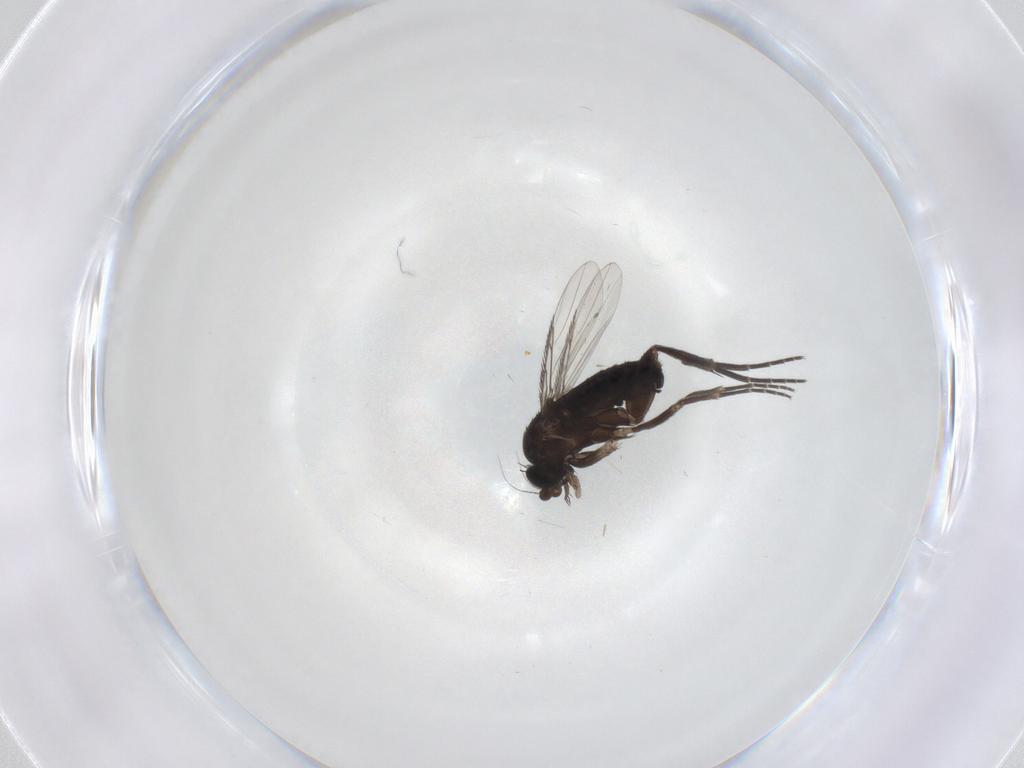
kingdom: Animalia
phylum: Arthropoda
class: Insecta
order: Diptera
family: Phoridae
